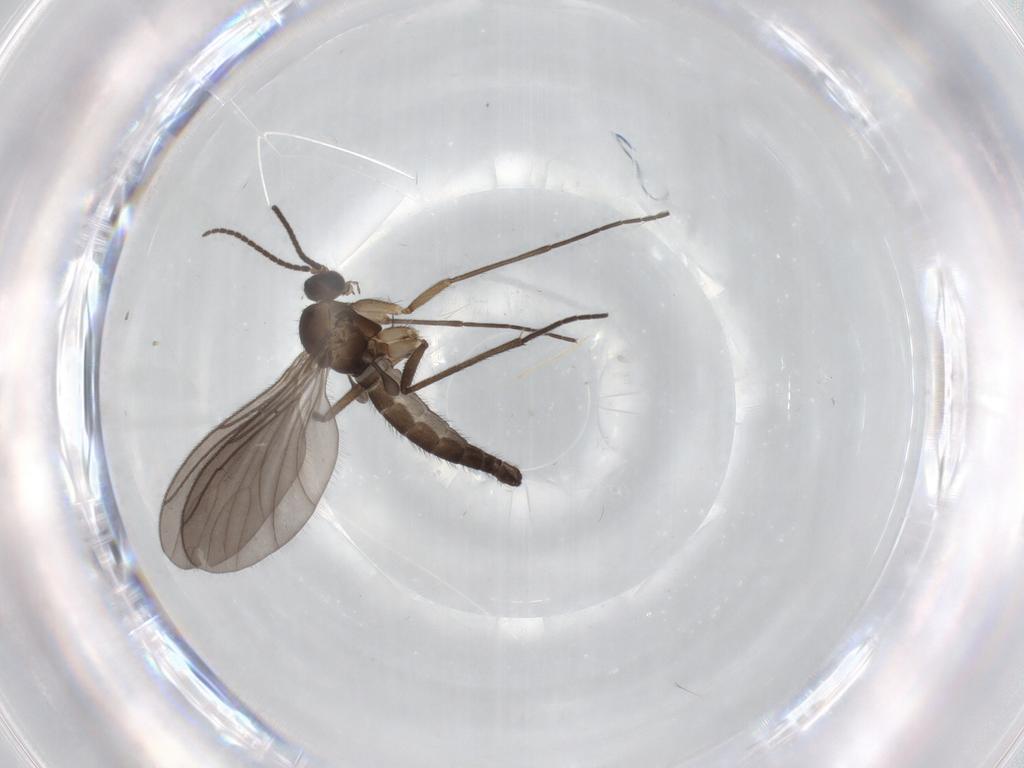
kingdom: Animalia
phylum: Arthropoda
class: Insecta
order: Diptera
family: Sciaridae
